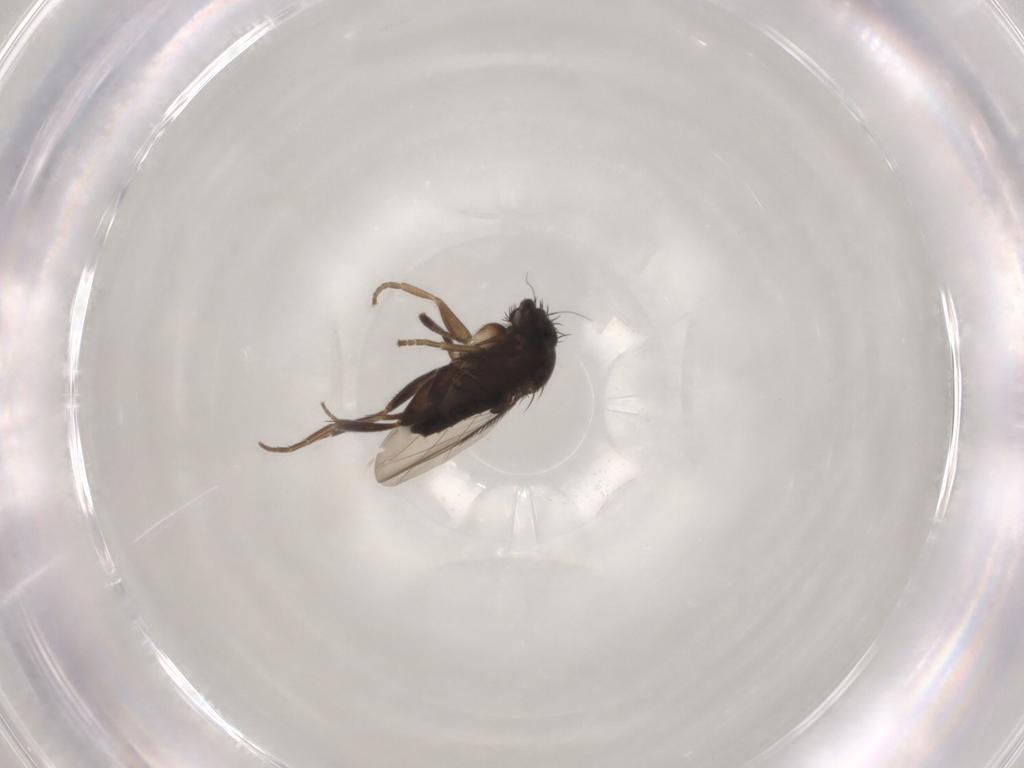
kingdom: Animalia
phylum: Arthropoda
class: Insecta
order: Diptera
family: Phoridae
